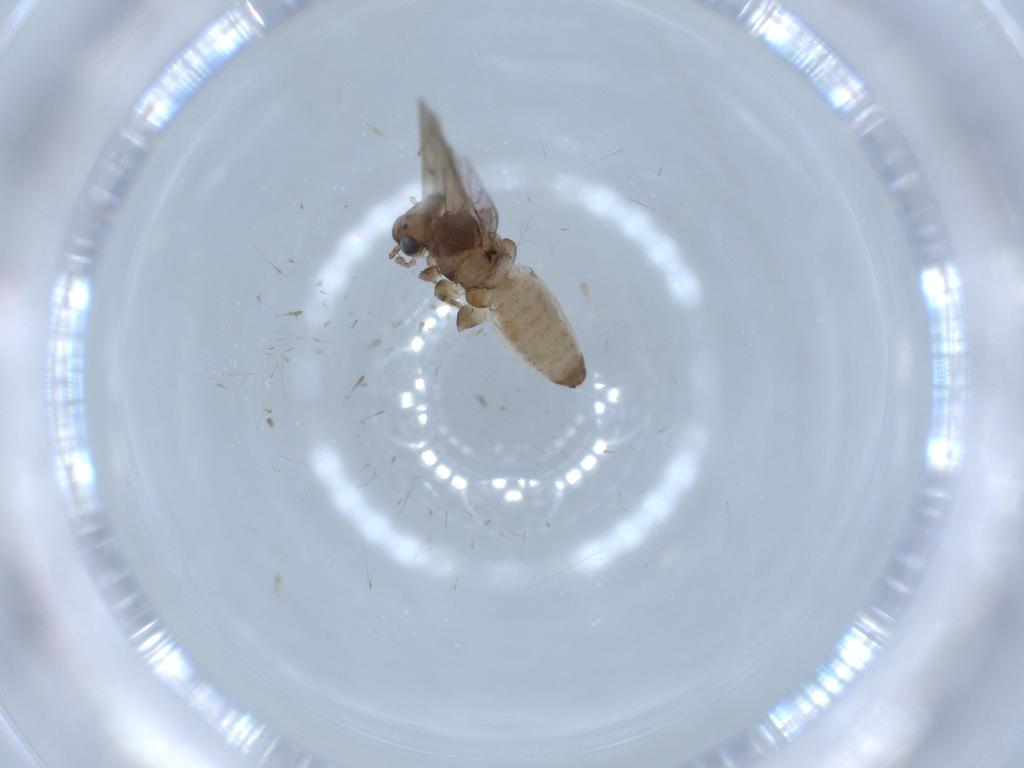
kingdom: Animalia
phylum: Arthropoda
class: Insecta
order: Psocodea
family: Lepidopsocidae
